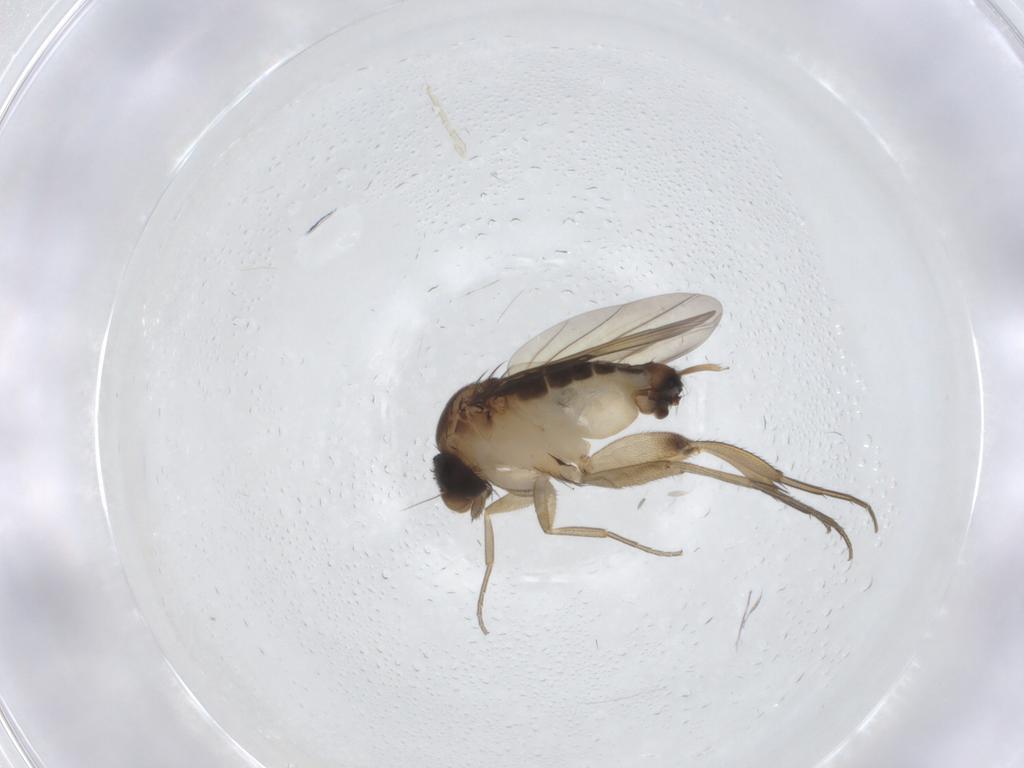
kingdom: Animalia
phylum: Arthropoda
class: Insecta
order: Diptera
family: Phoridae
